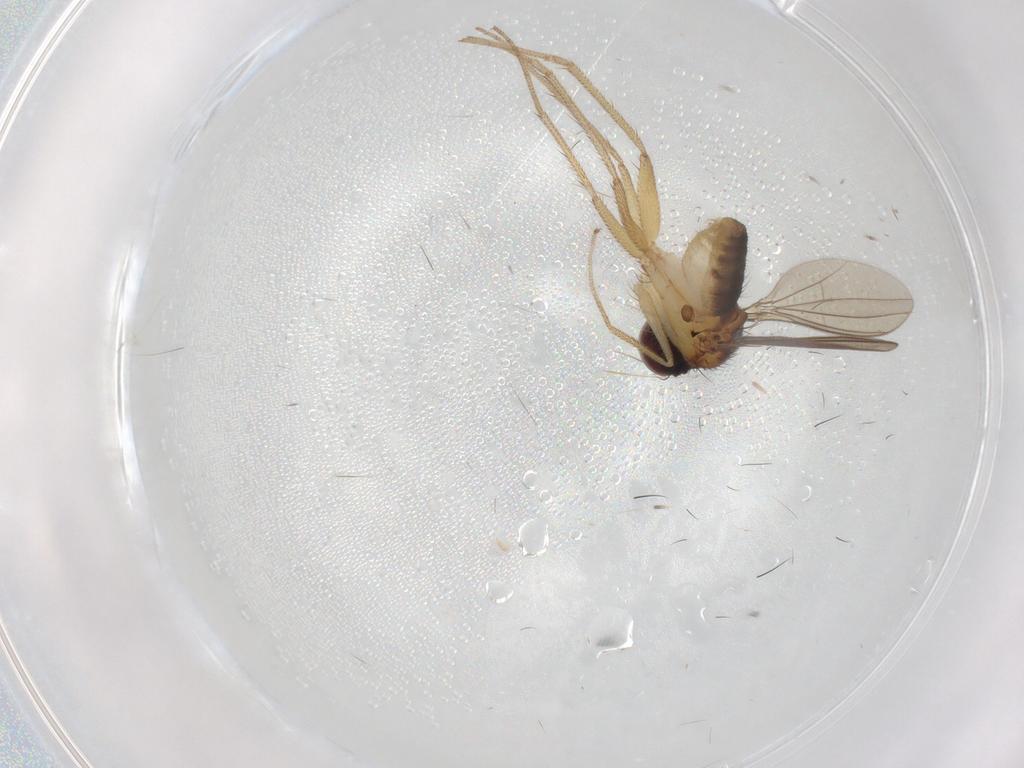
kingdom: Animalia
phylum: Arthropoda
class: Insecta
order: Diptera
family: Dolichopodidae
